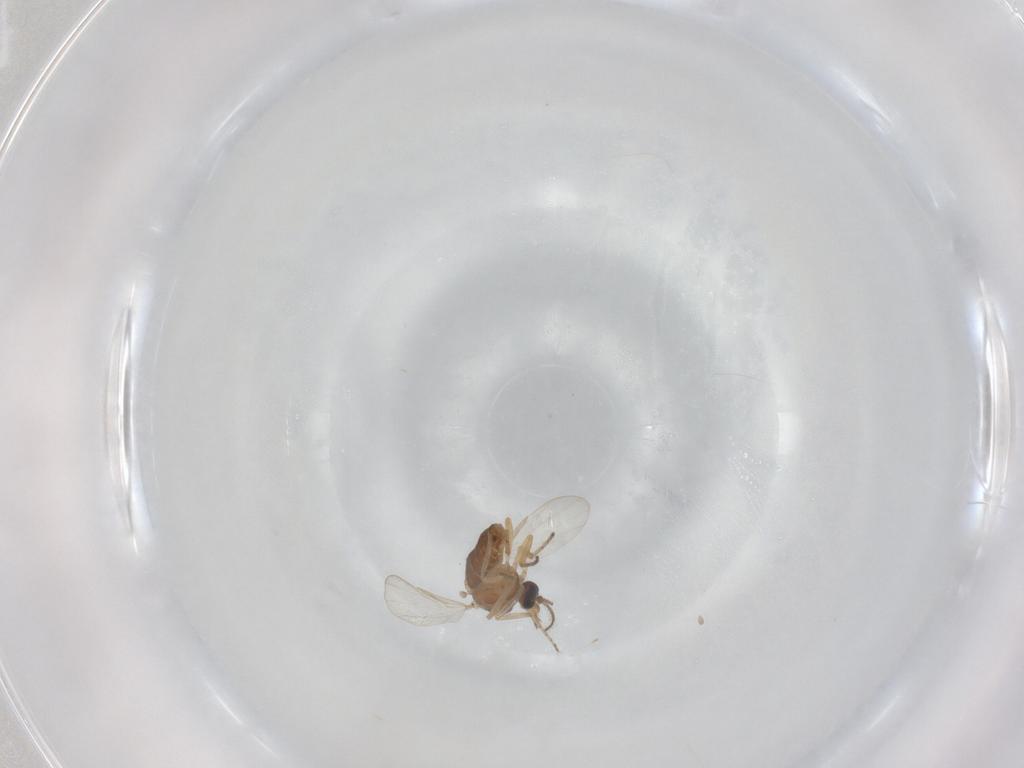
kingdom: Animalia
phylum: Arthropoda
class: Insecta
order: Diptera
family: Ceratopogonidae
